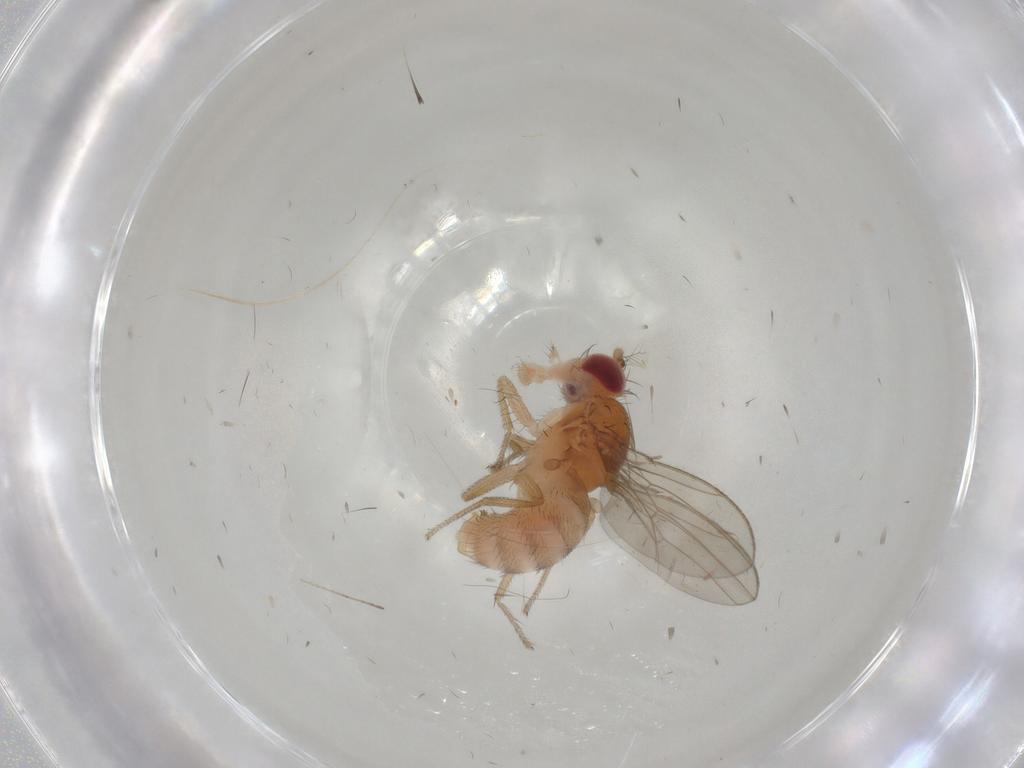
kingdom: Animalia
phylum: Arthropoda
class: Insecta
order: Diptera
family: Drosophilidae
